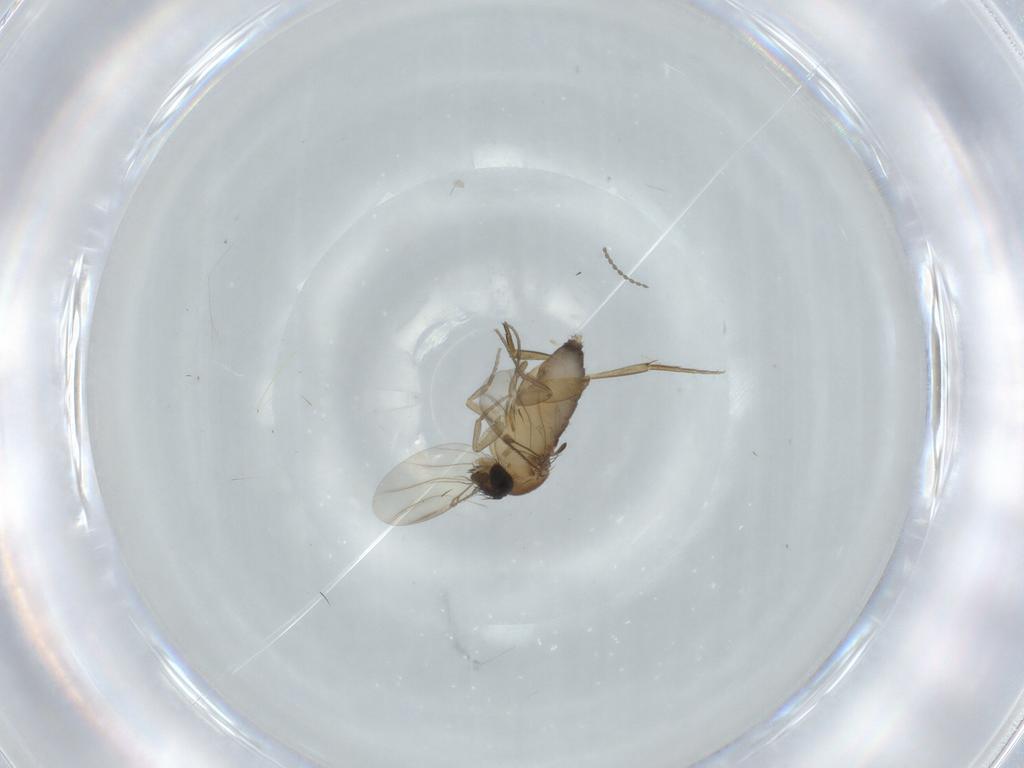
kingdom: Animalia
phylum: Arthropoda
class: Insecta
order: Diptera
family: Phoridae
